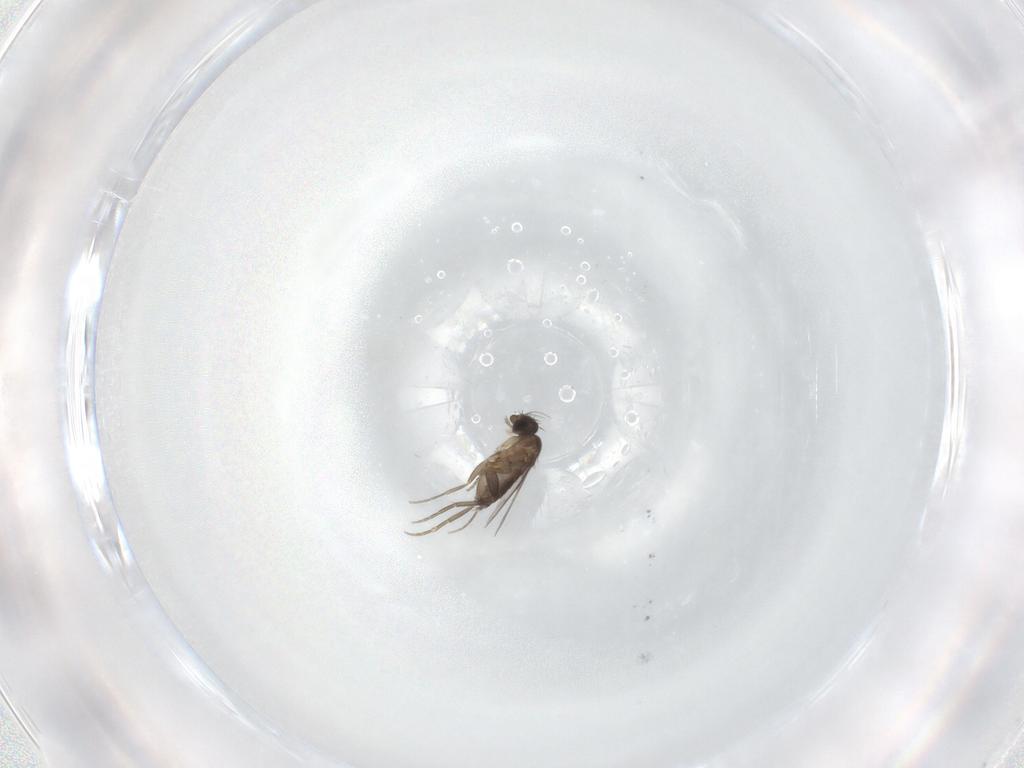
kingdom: Animalia
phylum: Arthropoda
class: Insecta
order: Diptera
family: Phoridae
